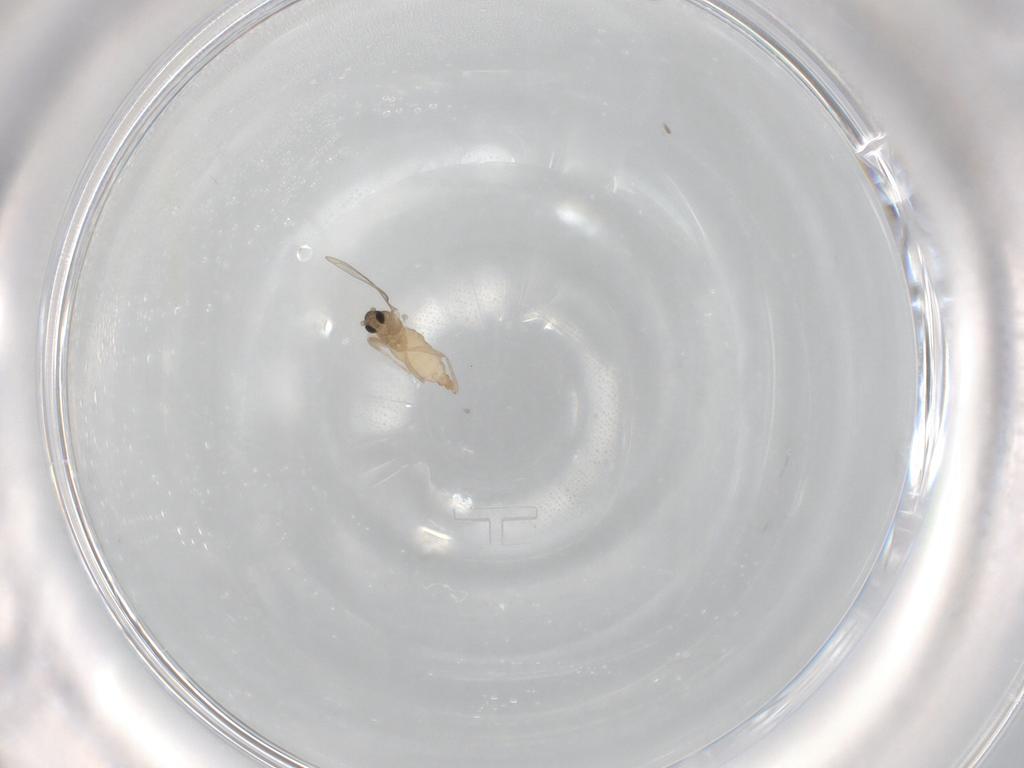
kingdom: Animalia
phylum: Arthropoda
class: Insecta
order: Diptera
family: Cecidomyiidae
